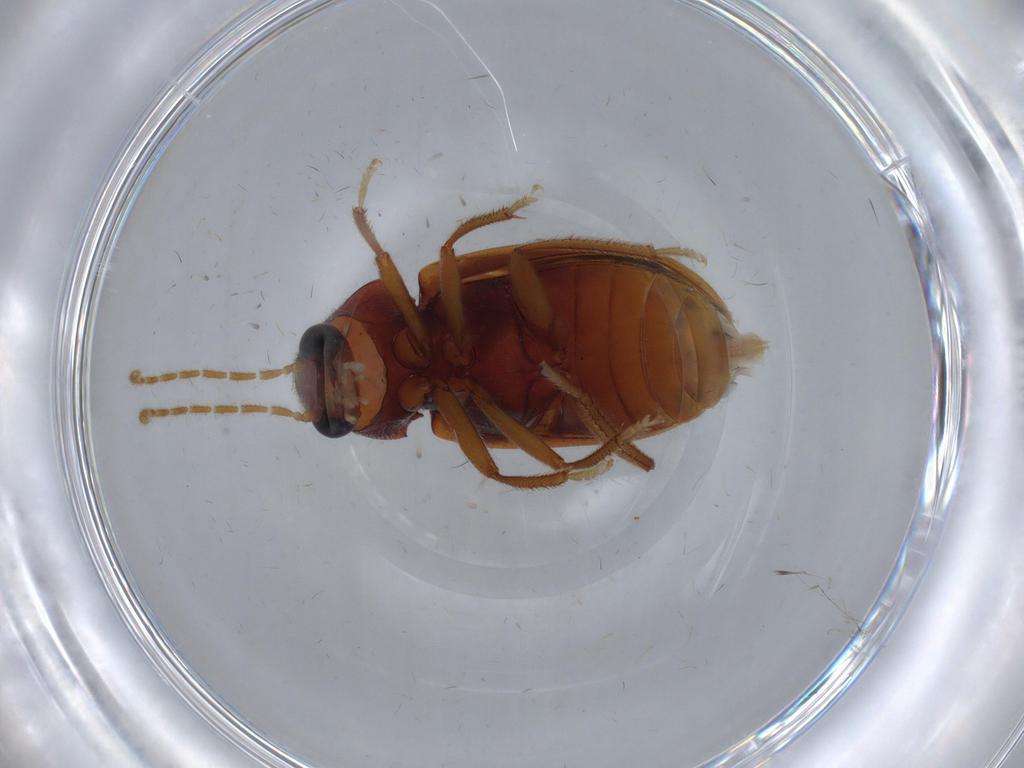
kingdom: Animalia
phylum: Arthropoda
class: Insecta
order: Coleoptera
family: Ptilodactylidae
